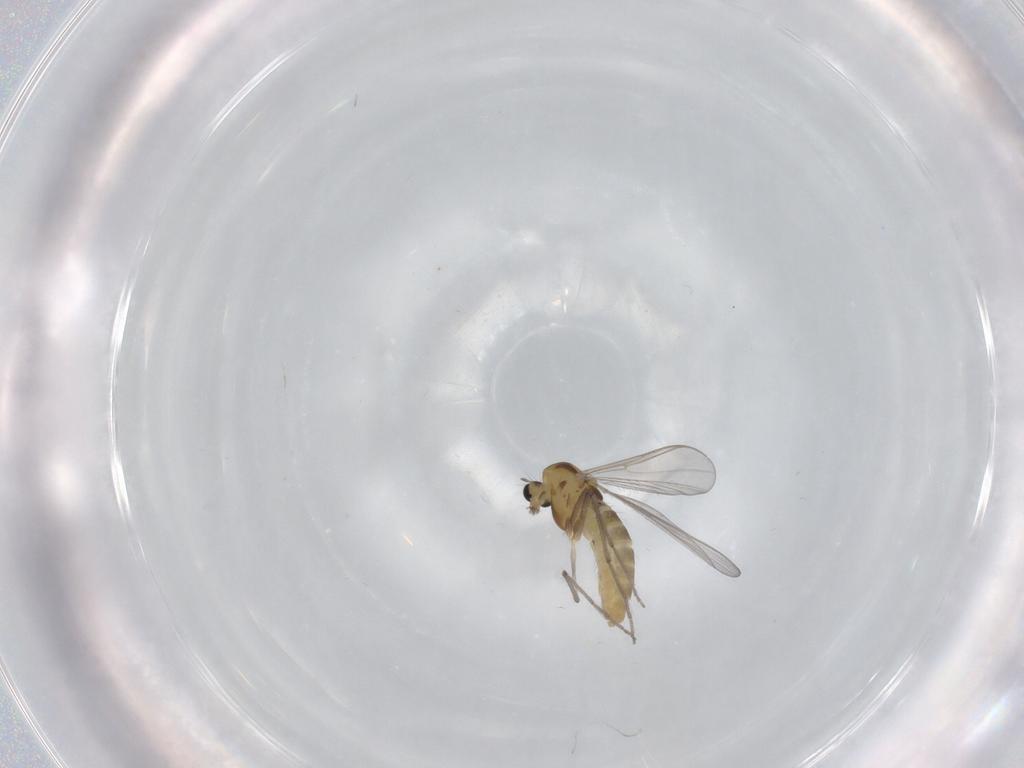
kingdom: Animalia
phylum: Arthropoda
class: Insecta
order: Diptera
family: Chironomidae
